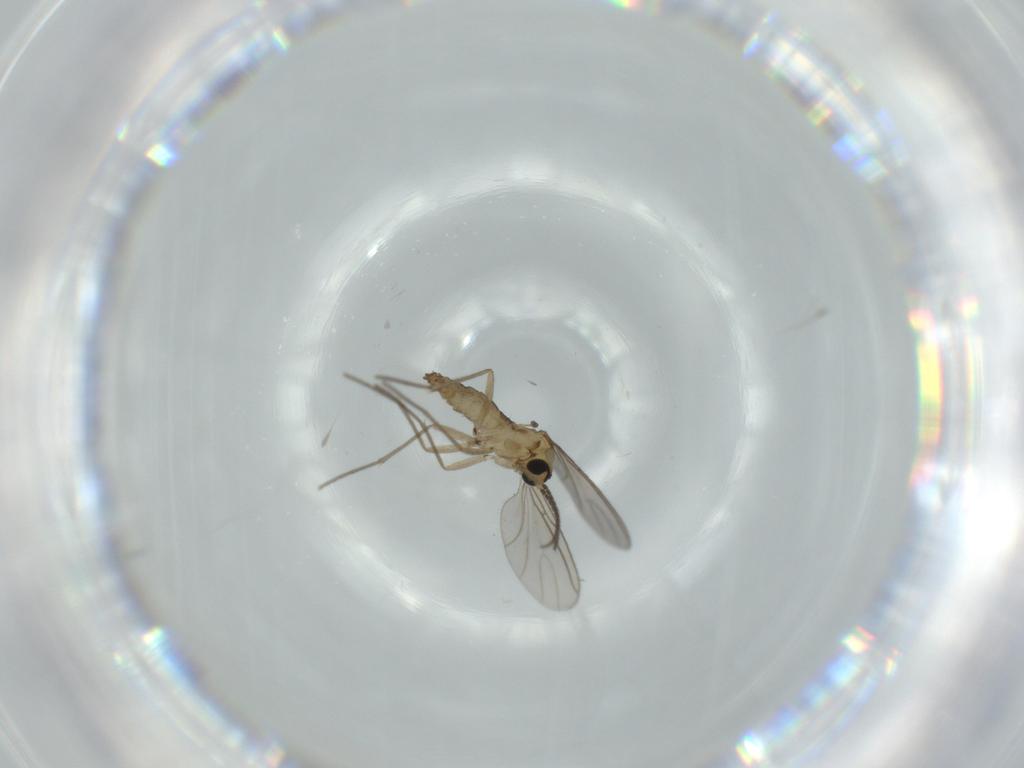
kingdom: Animalia
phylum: Arthropoda
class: Insecta
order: Diptera
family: Sciaridae
